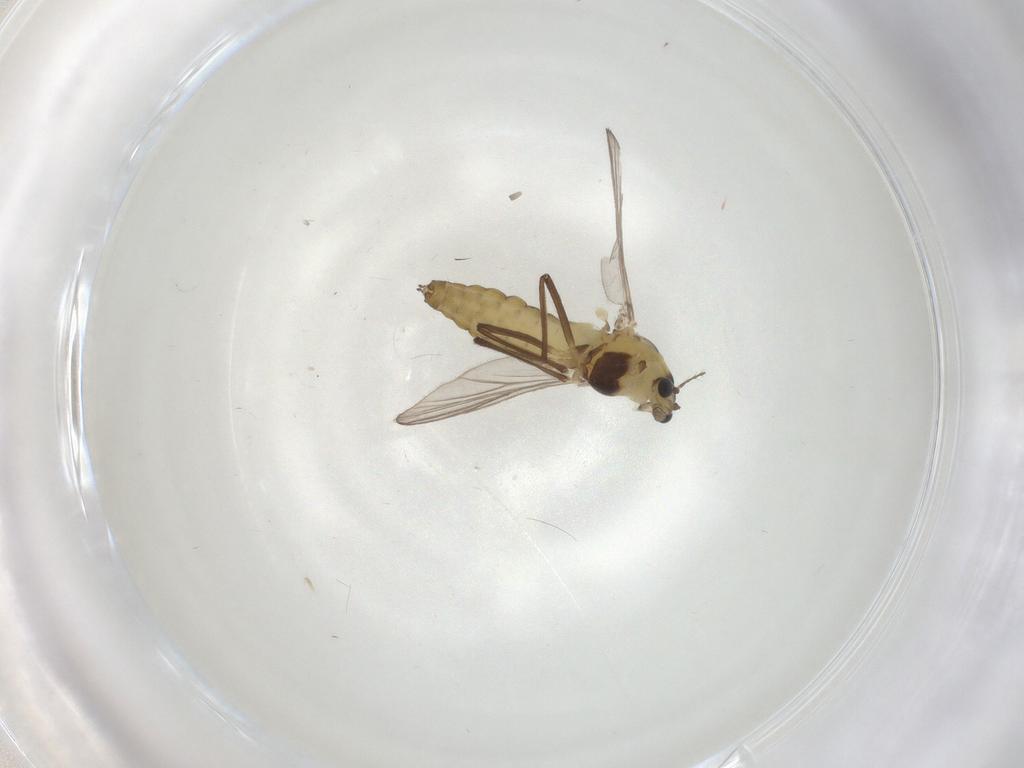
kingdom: Animalia
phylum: Arthropoda
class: Insecta
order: Diptera
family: Chironomidae
